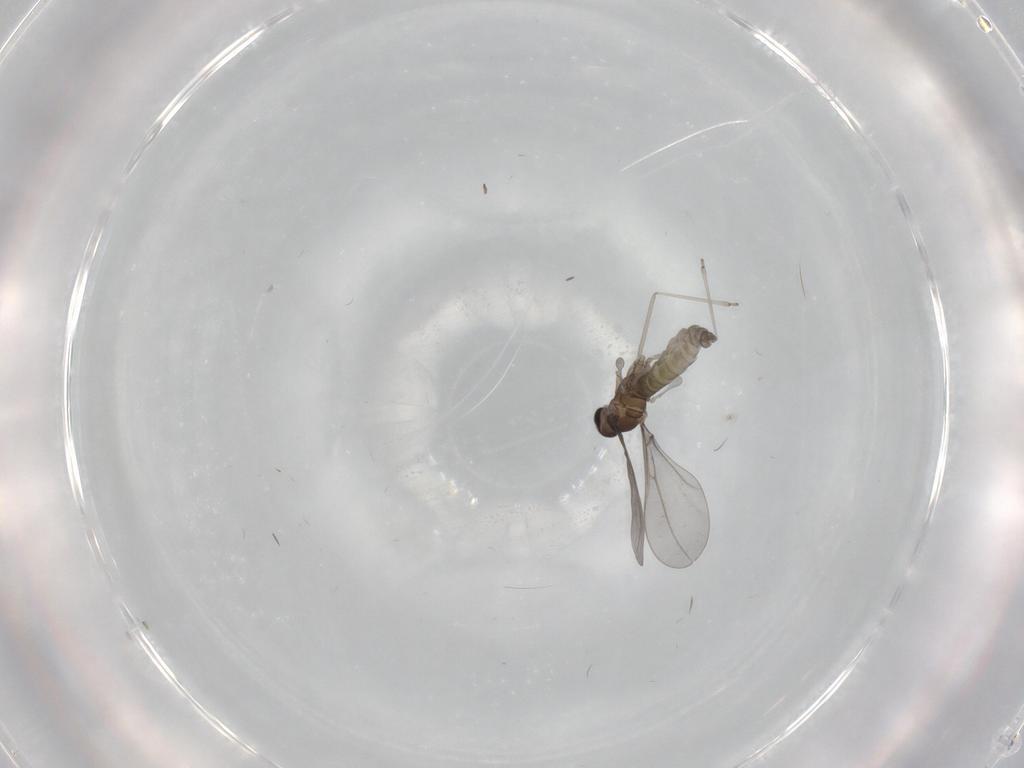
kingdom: Animalia
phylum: Arthropoda
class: Insecta
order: Diptera
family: Cecidomyiidae
